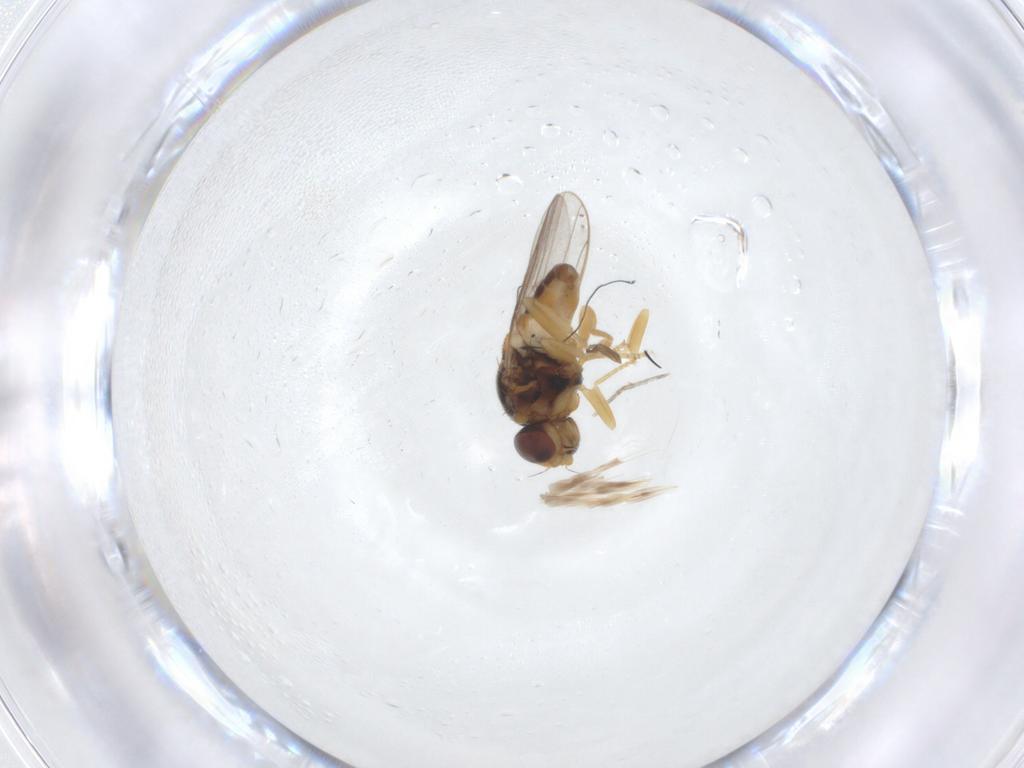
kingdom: Animalia
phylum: Arthropoda
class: Insecta
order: Diptera
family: Chloropidae
